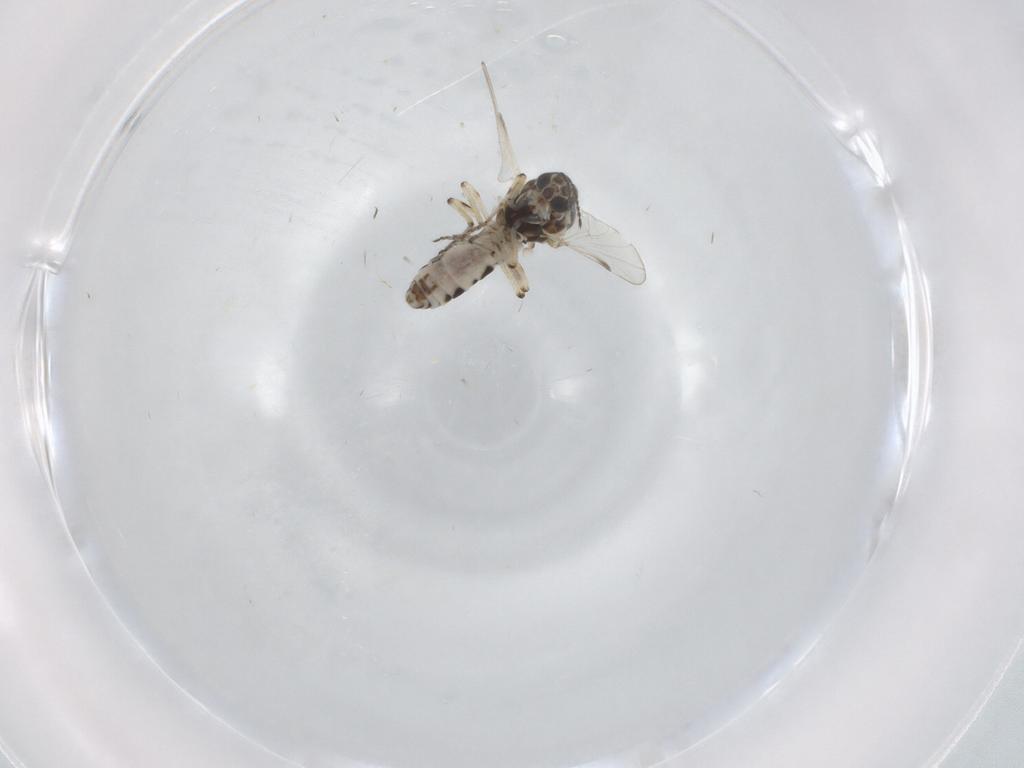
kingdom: Animalia
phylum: Arthropoda
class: Insecta
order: Diptera
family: Ceratopogonidae
